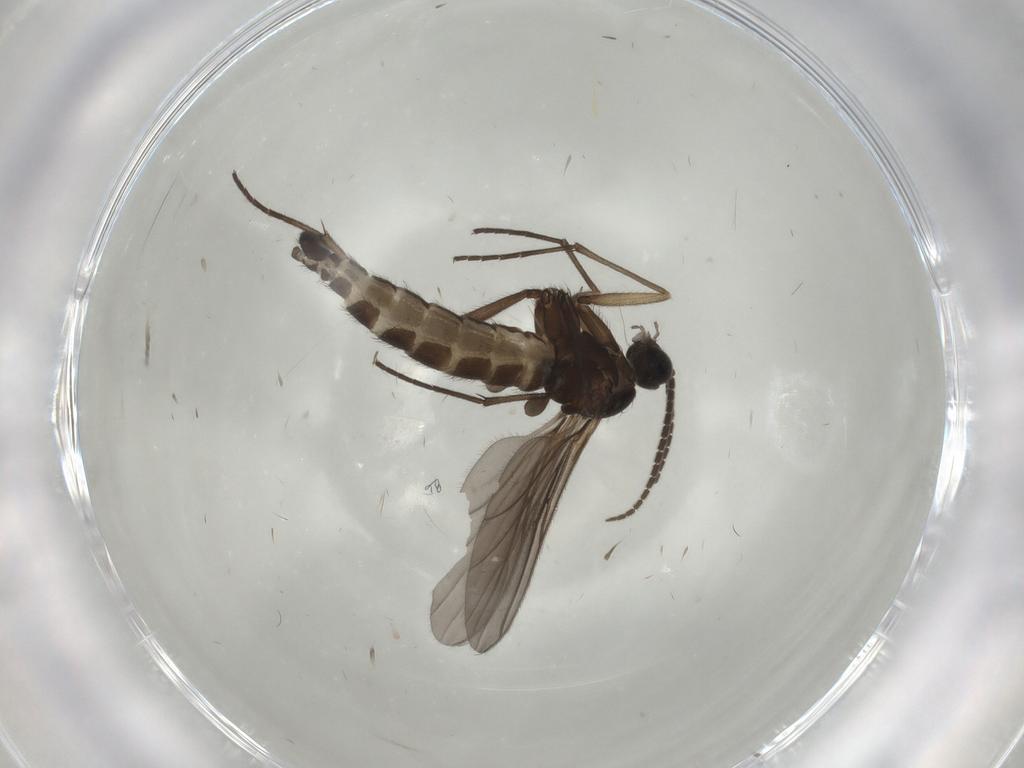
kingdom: Animalia
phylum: Arthropoda
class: Insecta
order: Diptera
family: Sciaridae
